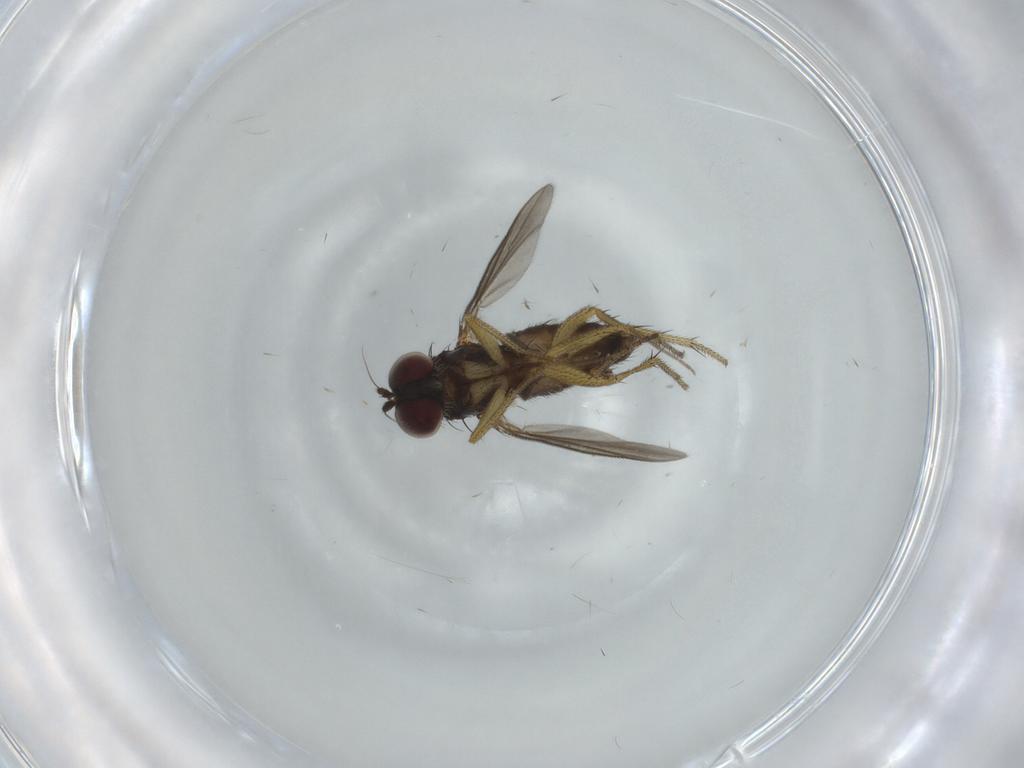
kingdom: Animalia
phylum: Arthropoda
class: Insecta
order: Diptera
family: Dolichopodidae
